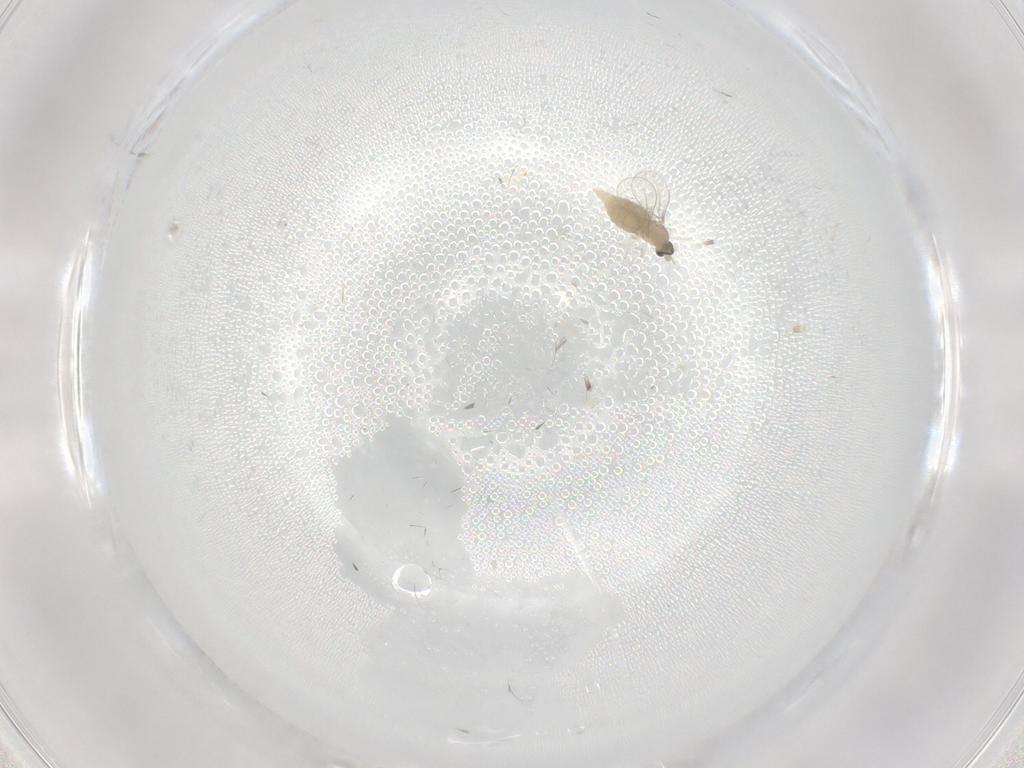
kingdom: Animalia
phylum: Arthropoda
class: Insecta
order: Diptera
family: Cecidomyiidae
